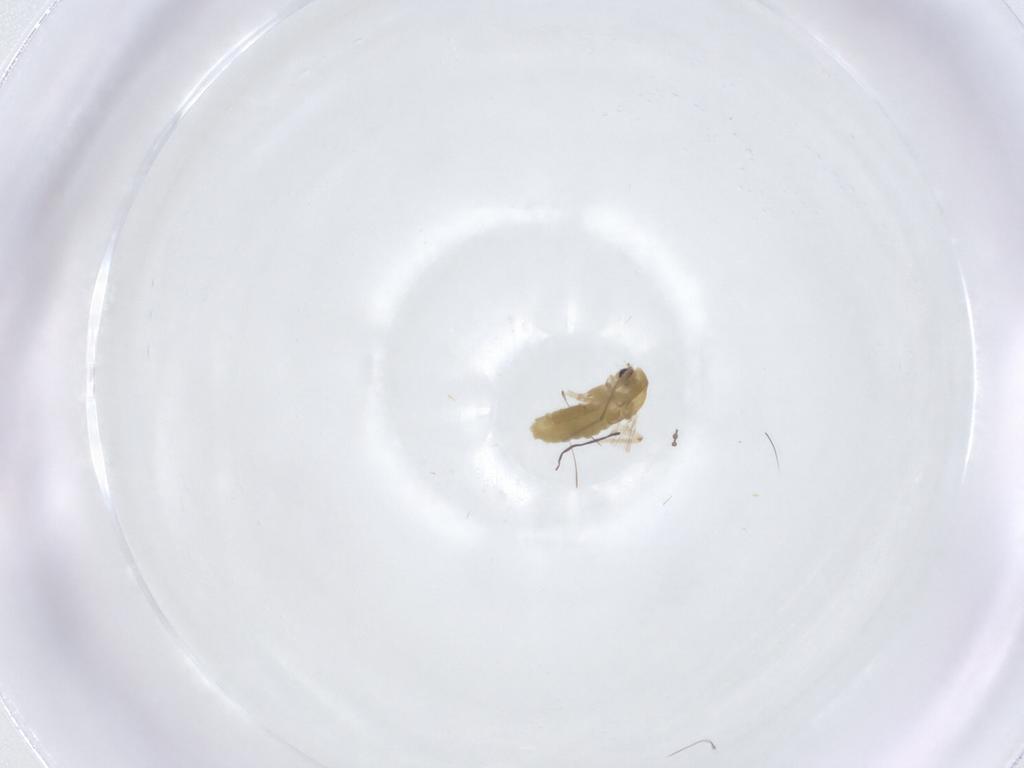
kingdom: Animalia
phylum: Arthropoda
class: Insecta
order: Diptera
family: Chironomidae
